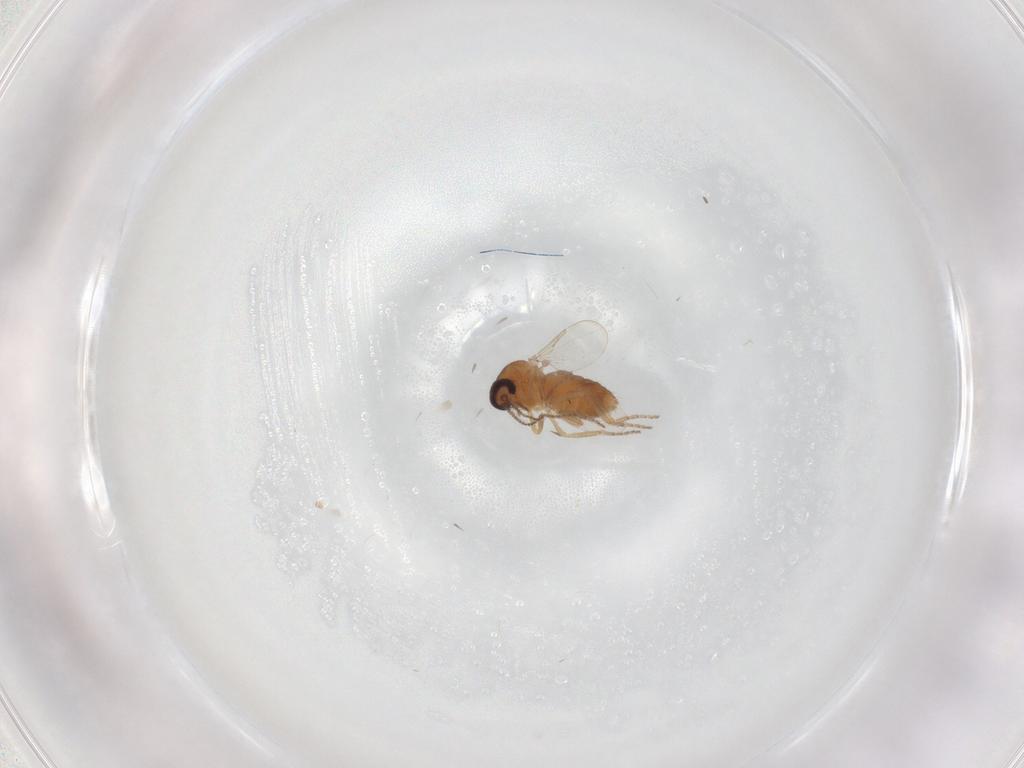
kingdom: Animalia
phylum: Arthropoda
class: Insecta
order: Diptera
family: Ceratopogonidae
